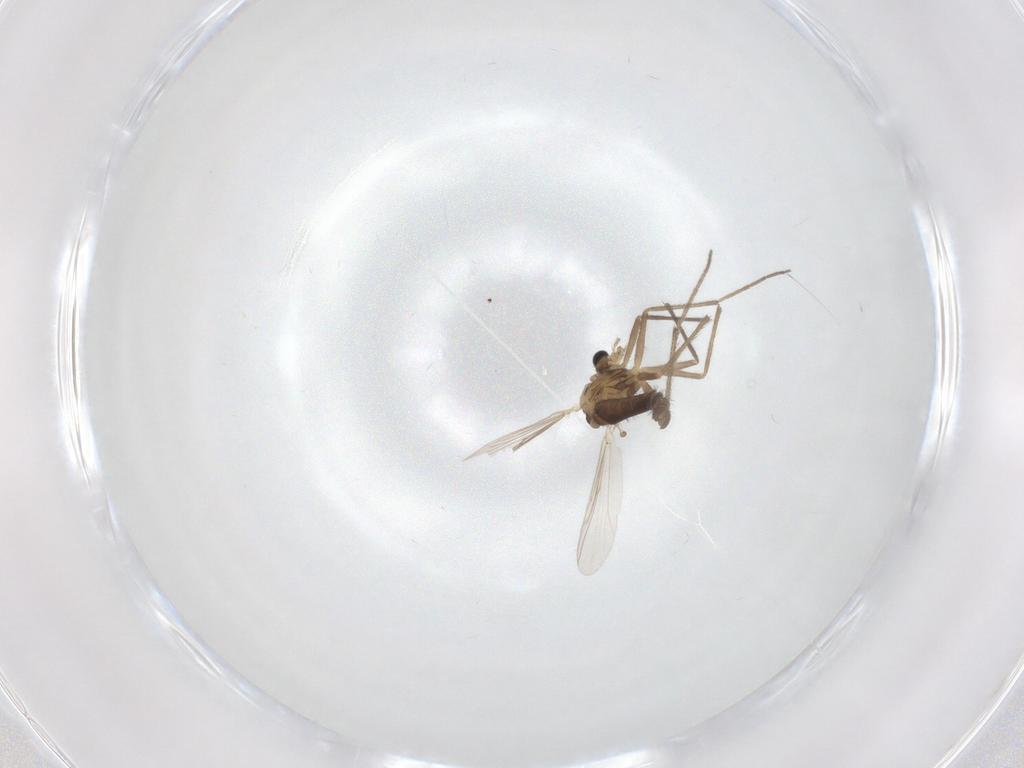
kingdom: Animalia
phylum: Arthropoda
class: Insecta
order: Diptera
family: Chironomidae
